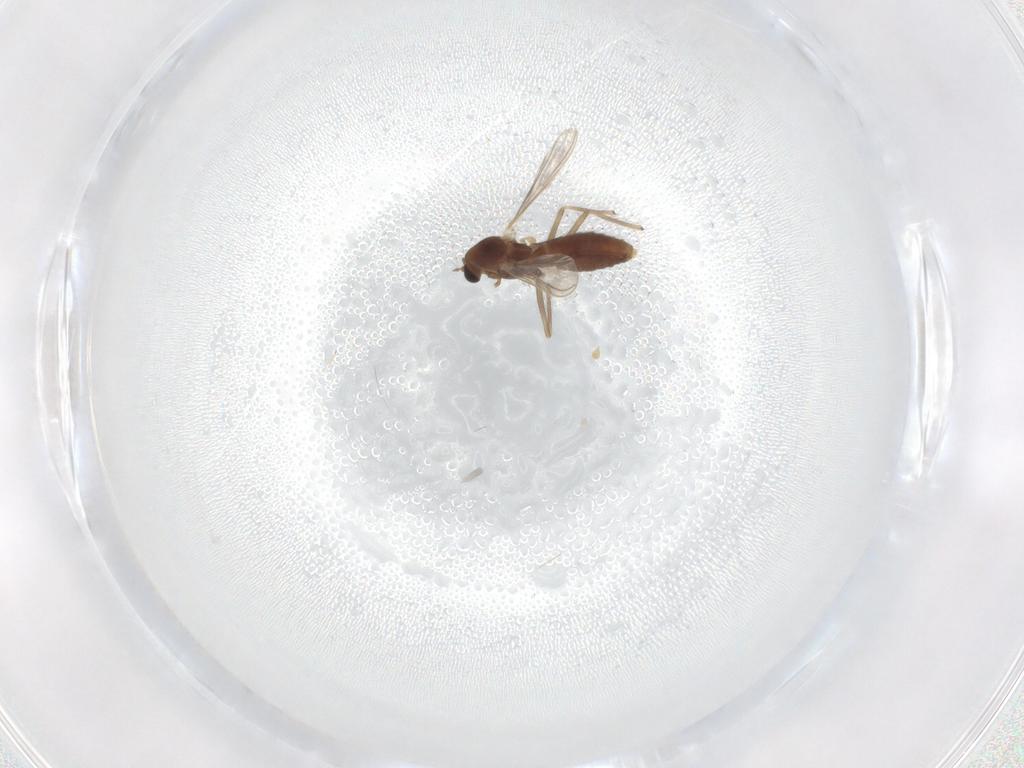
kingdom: Animalia
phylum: Arthropoda
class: Insecta
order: Diptera
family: Chironomidae
